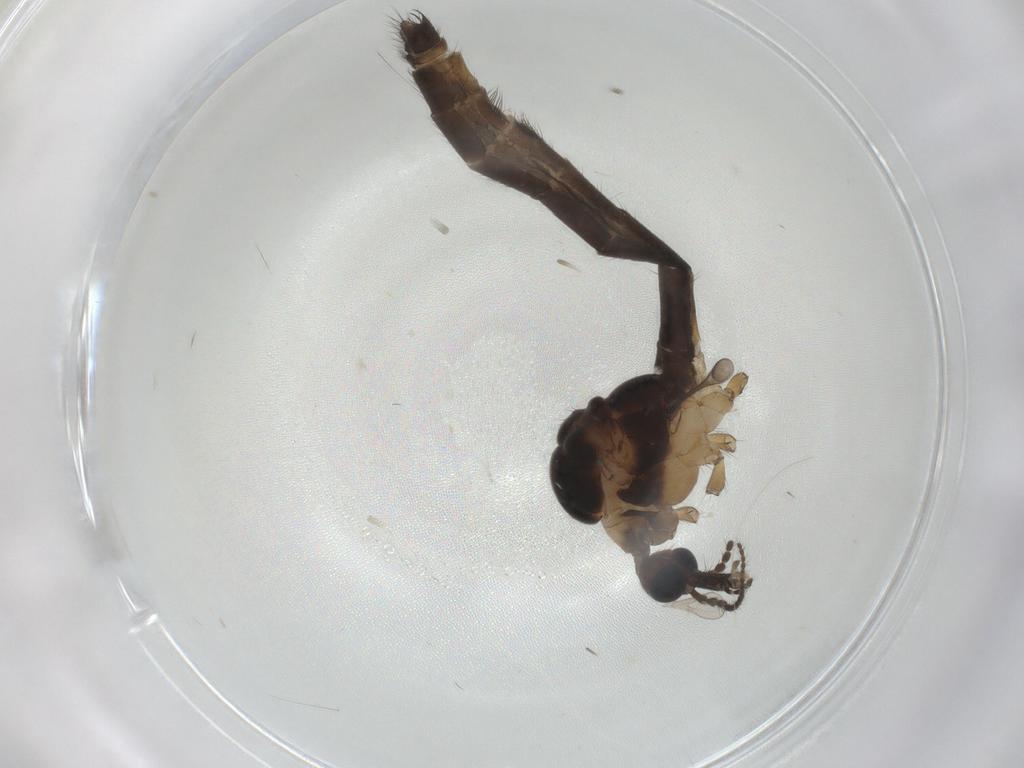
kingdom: Animalia
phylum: Arthropoda
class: Insecta
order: Diptera
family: Limoniidae
